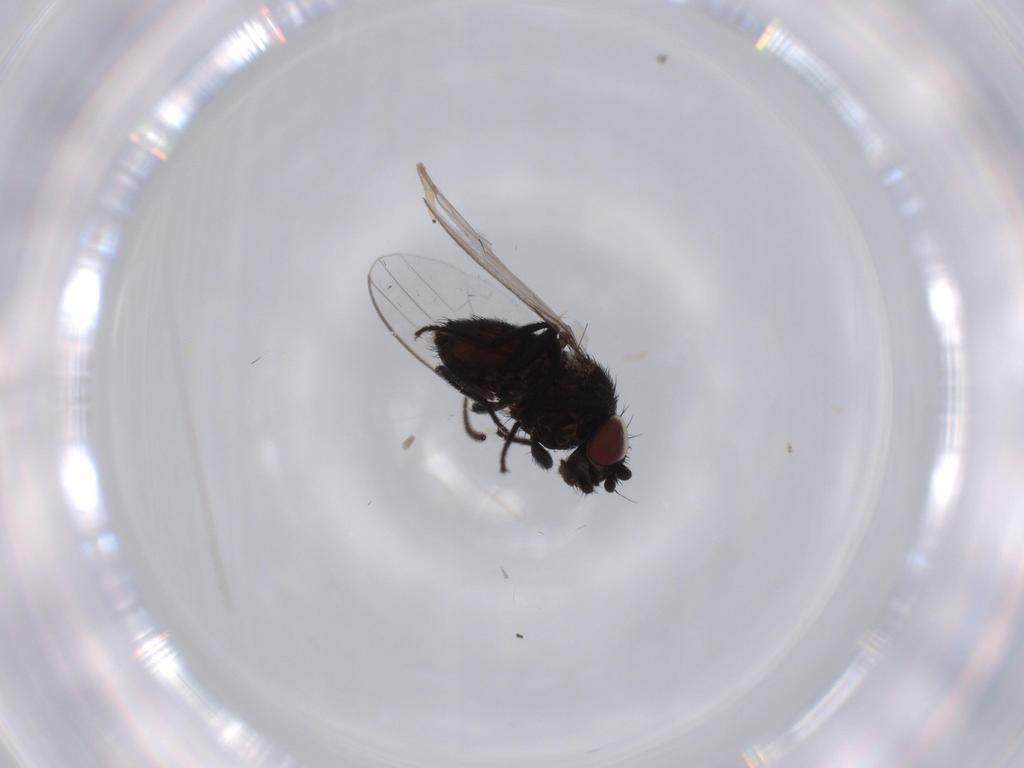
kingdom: Animalia
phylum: Arthropoda
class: Insecta
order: Diptera
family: Milichiidae
